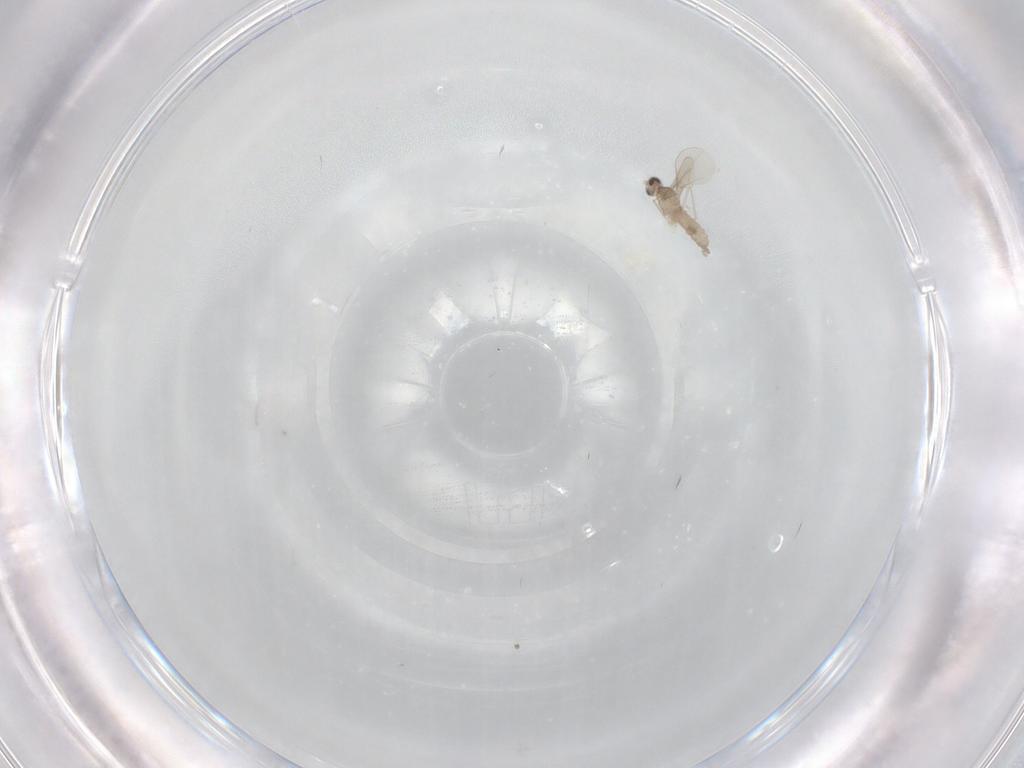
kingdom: Animalia
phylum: Arthropoda
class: Insecta
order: Diptera
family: Cecidomyiidae
